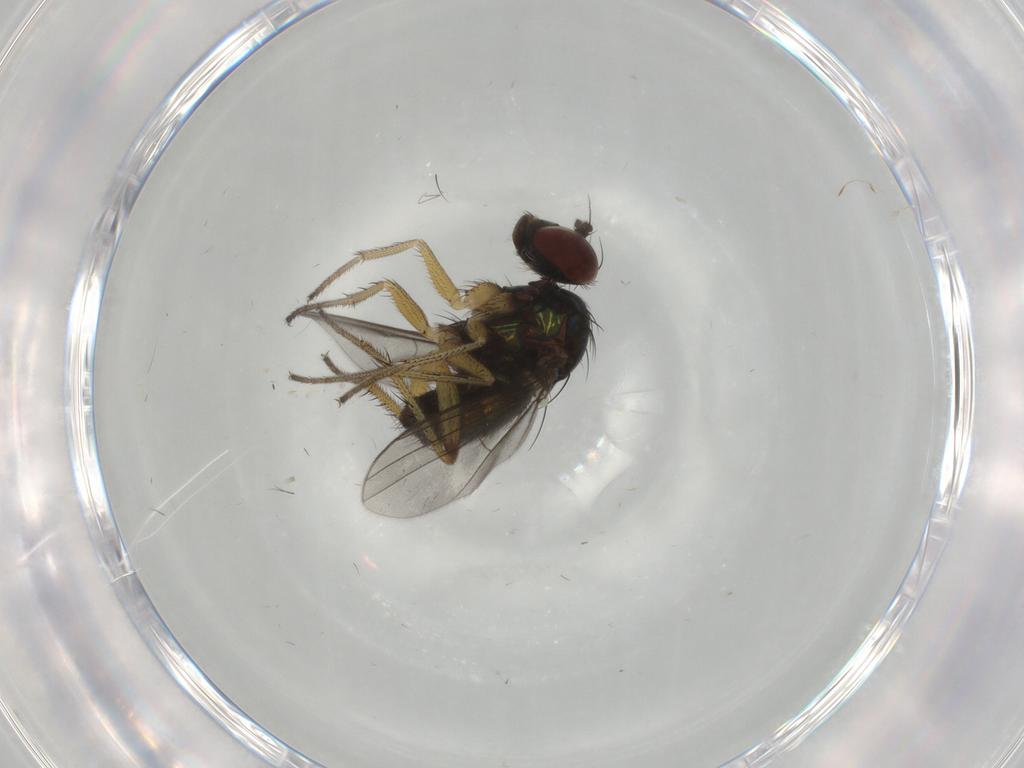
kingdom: Animalia
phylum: Arthropoda
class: Insecta
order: Diptera
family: Dolichopodidae
